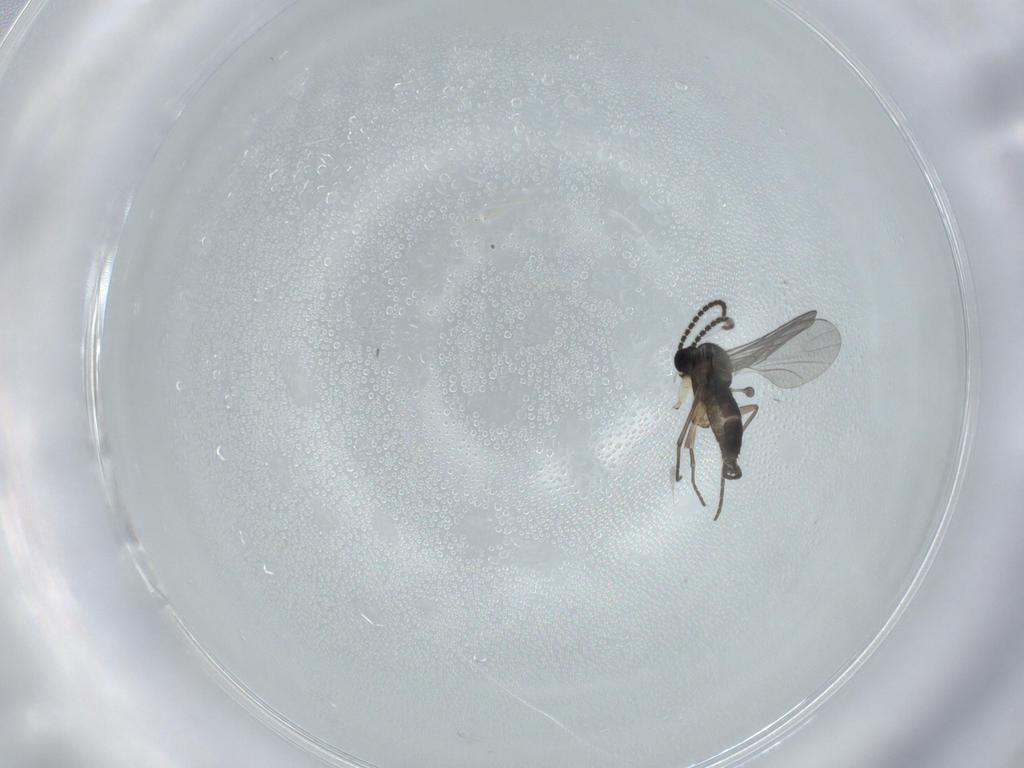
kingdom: Animalia
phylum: Arthropoda
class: Insecta
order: Diptera
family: Sciaridae
